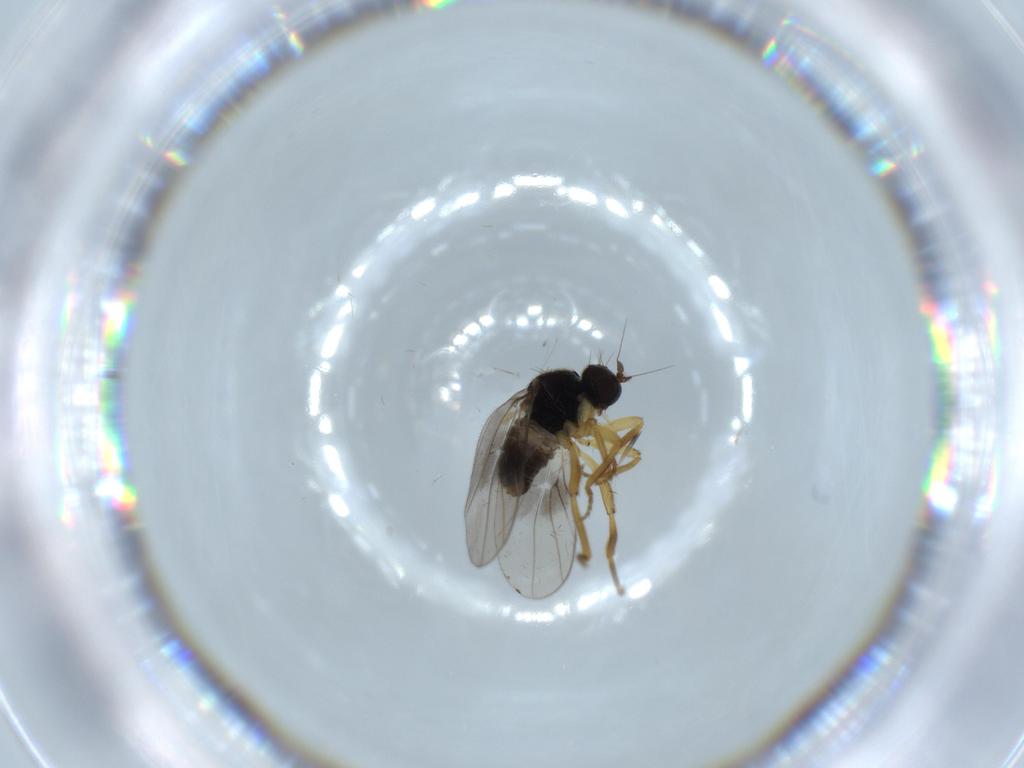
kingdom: Animalia
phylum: Arthropoda
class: Insecta
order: Diptera
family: Hybotidae
